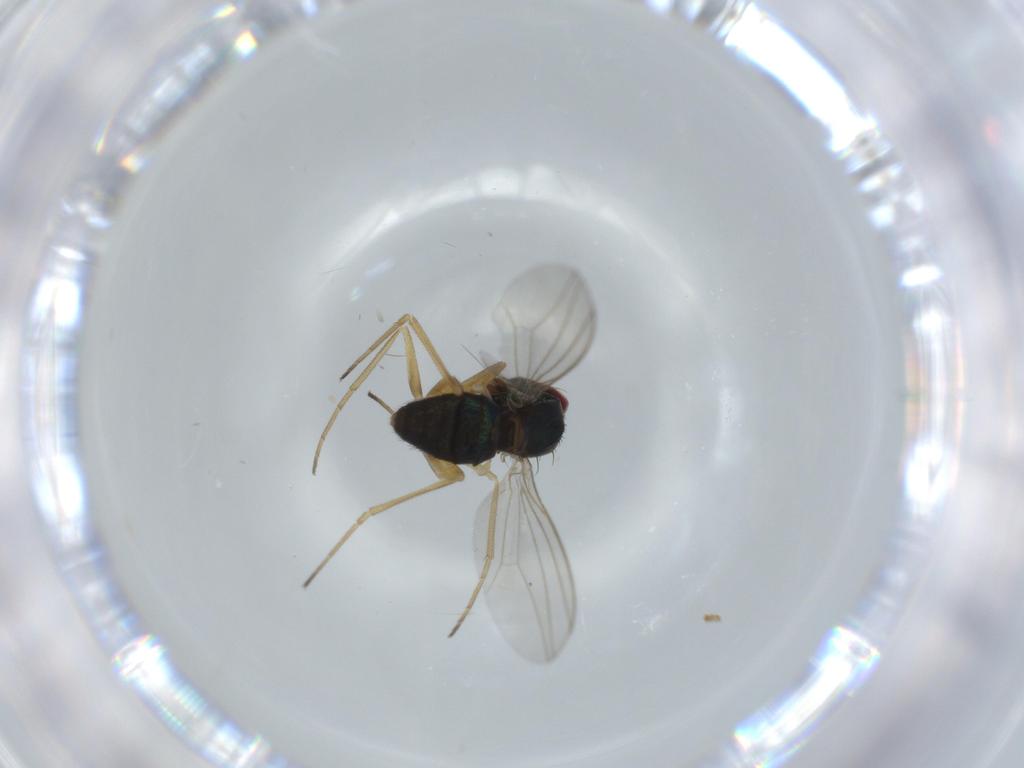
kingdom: Animalia
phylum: Arthropoda
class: Insecta
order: Diptera
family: Dolichopodidae
